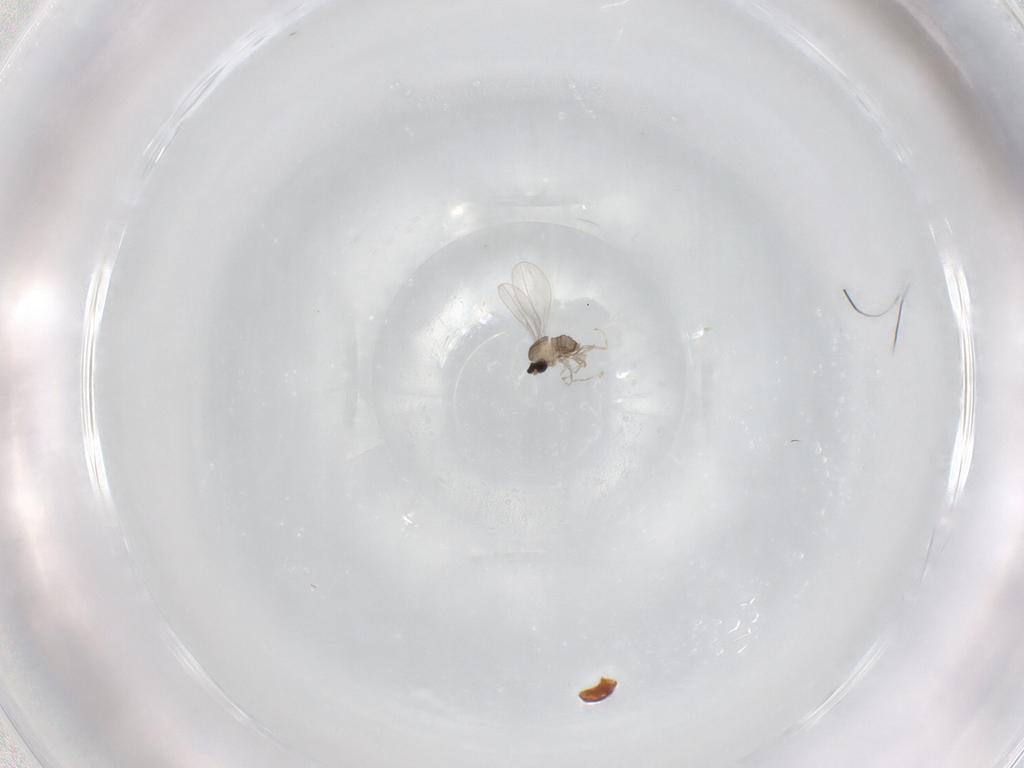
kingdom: Animalia
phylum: Arthropoda
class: Insecta
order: Diptera
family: Cecidomyiidae
